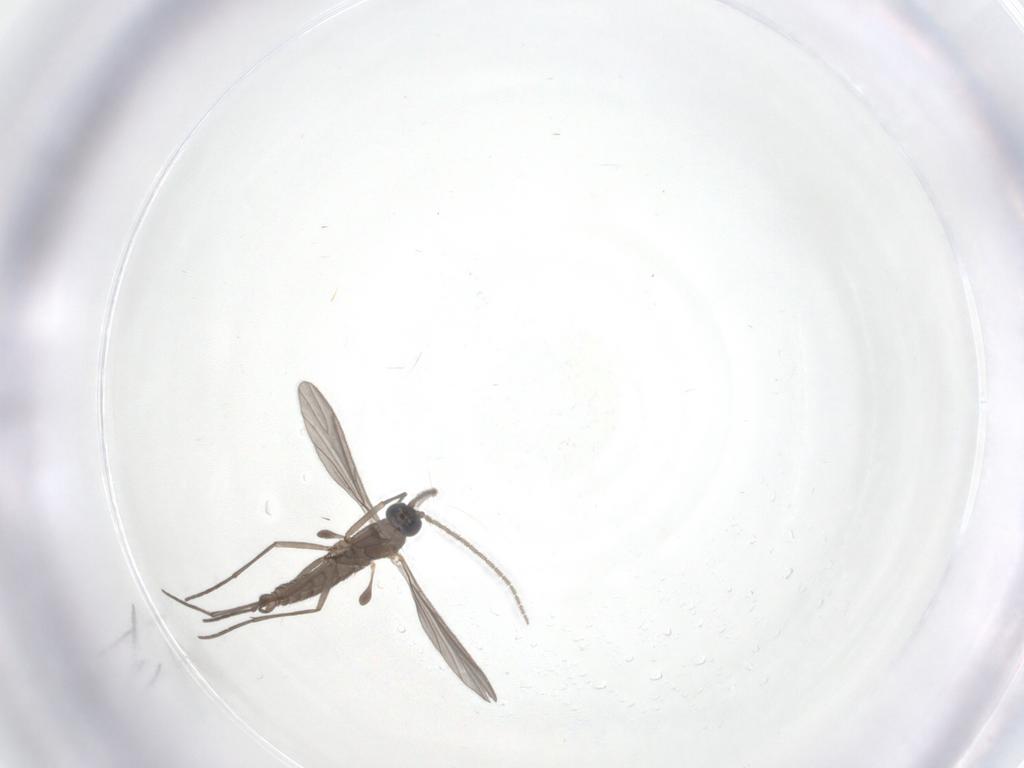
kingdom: Animalia
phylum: Arthropoda
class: Insecta
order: Diptera
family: Sciaridae
